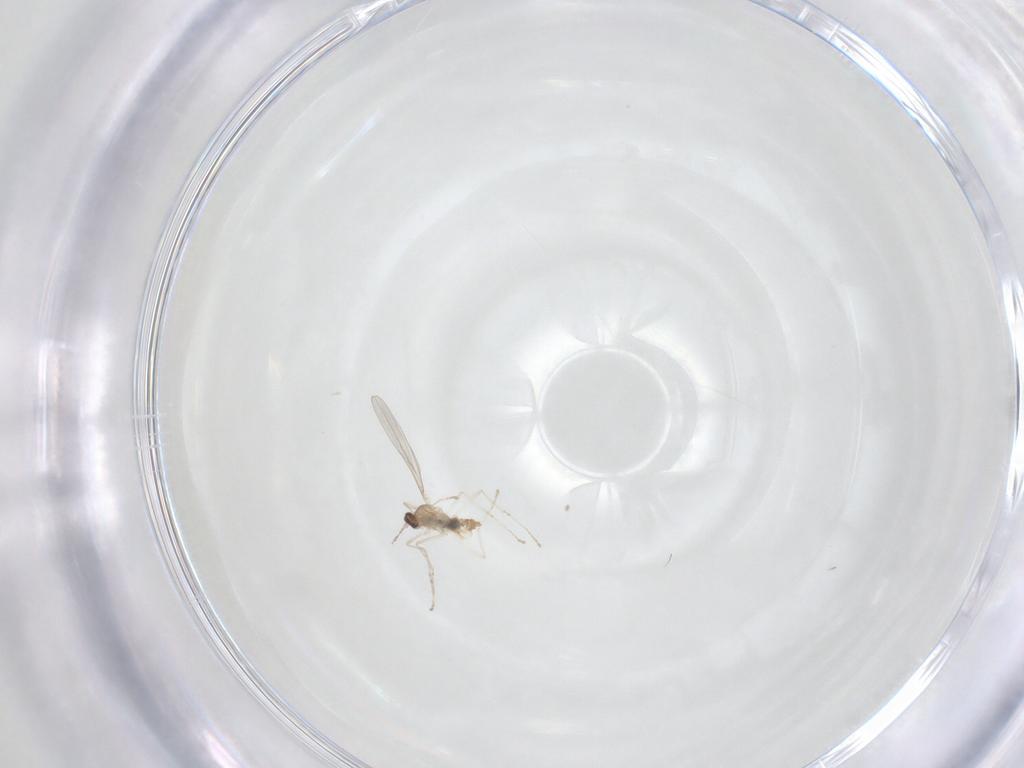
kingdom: Animalia
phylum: Arthropoda
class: Insecta
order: Diptera
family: Cecidomyiidae
